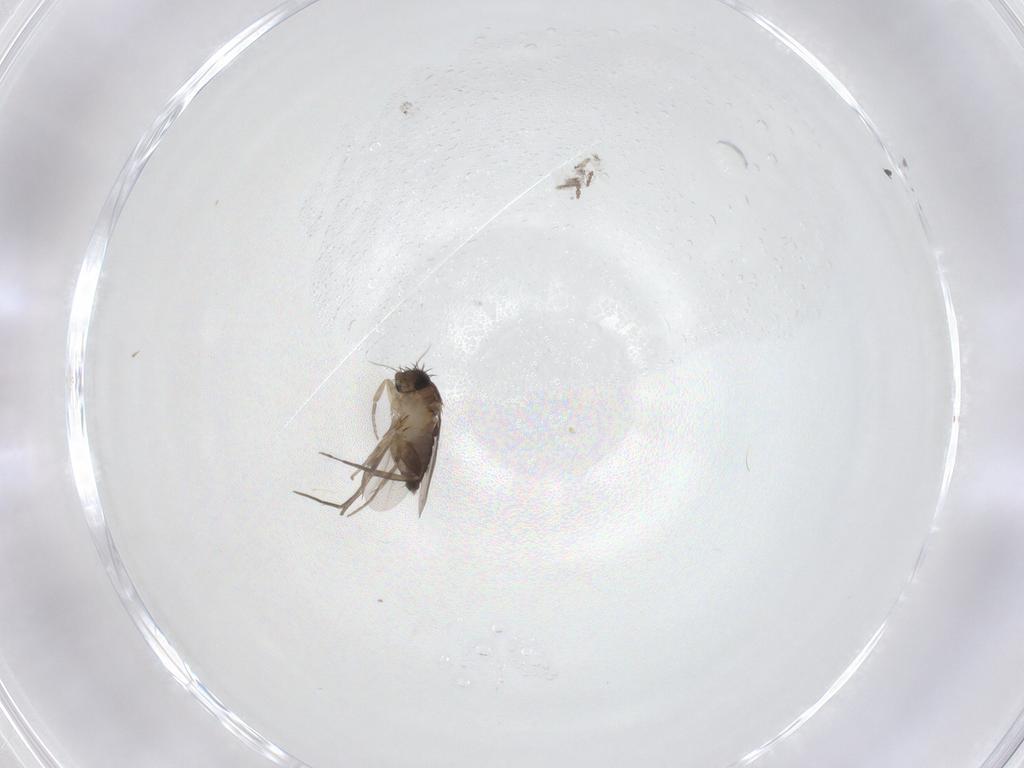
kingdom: Animalia
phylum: Arthropoda
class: Insecta
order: Diptera
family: Phoridae
